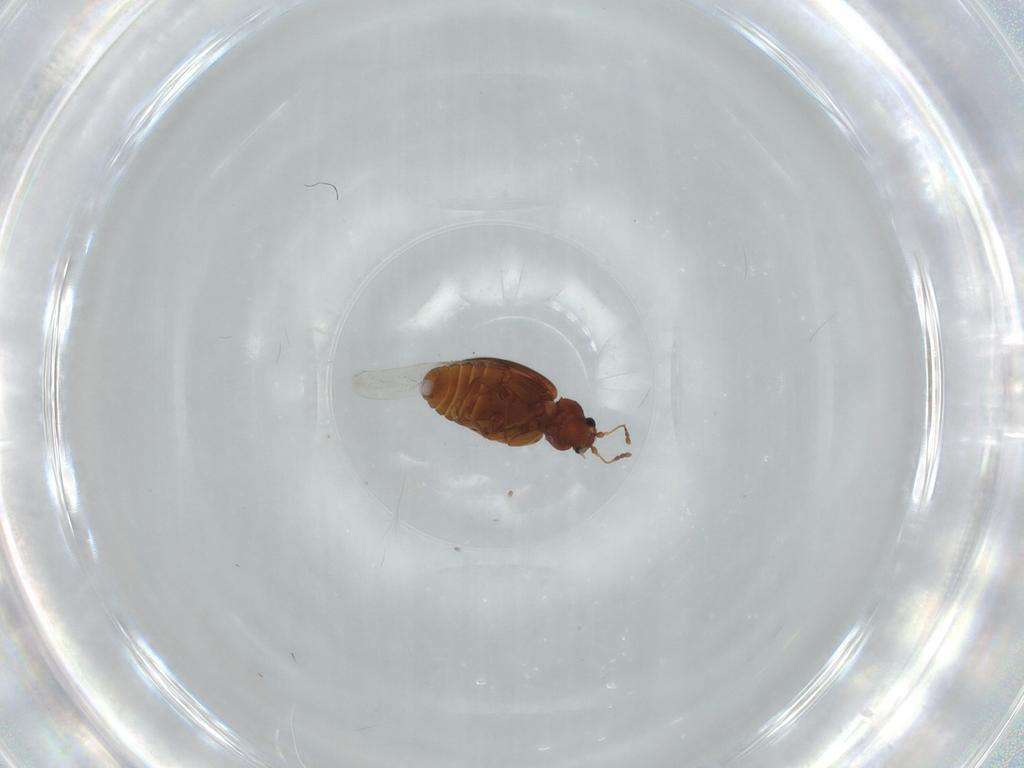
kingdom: Animalia
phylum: Arthropoda
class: Insecta
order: Coleoptera
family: Latridiidae
